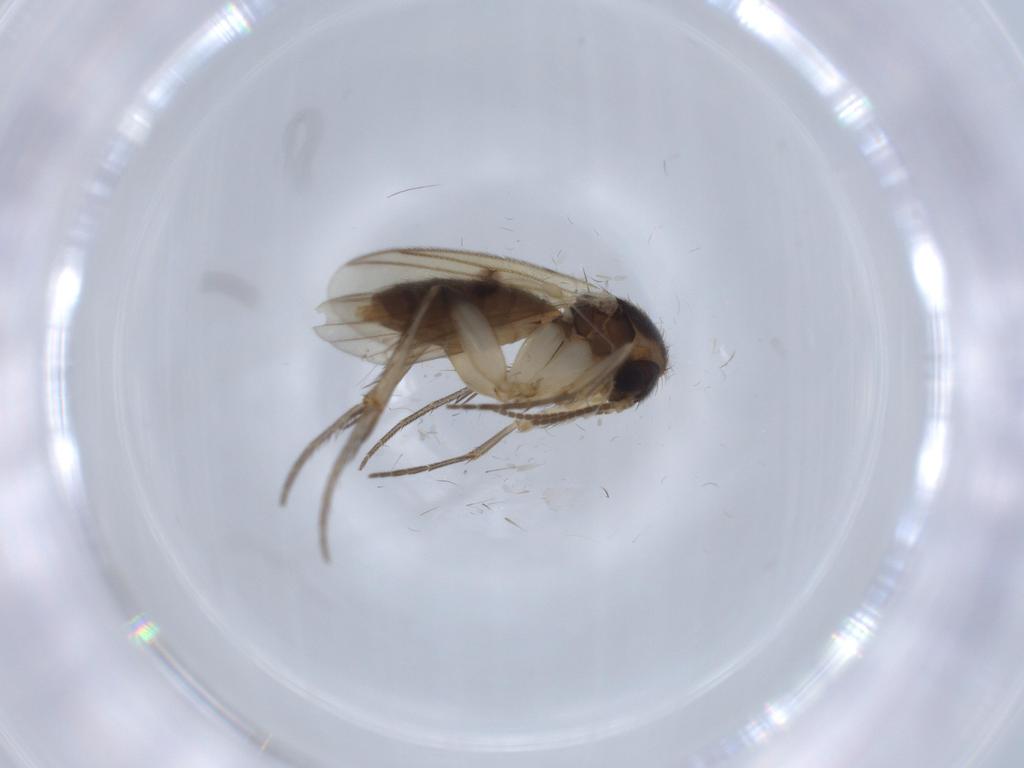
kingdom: Animalia
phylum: Arthropoda
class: Insecta
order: Diptera
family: Mycetophilidae
